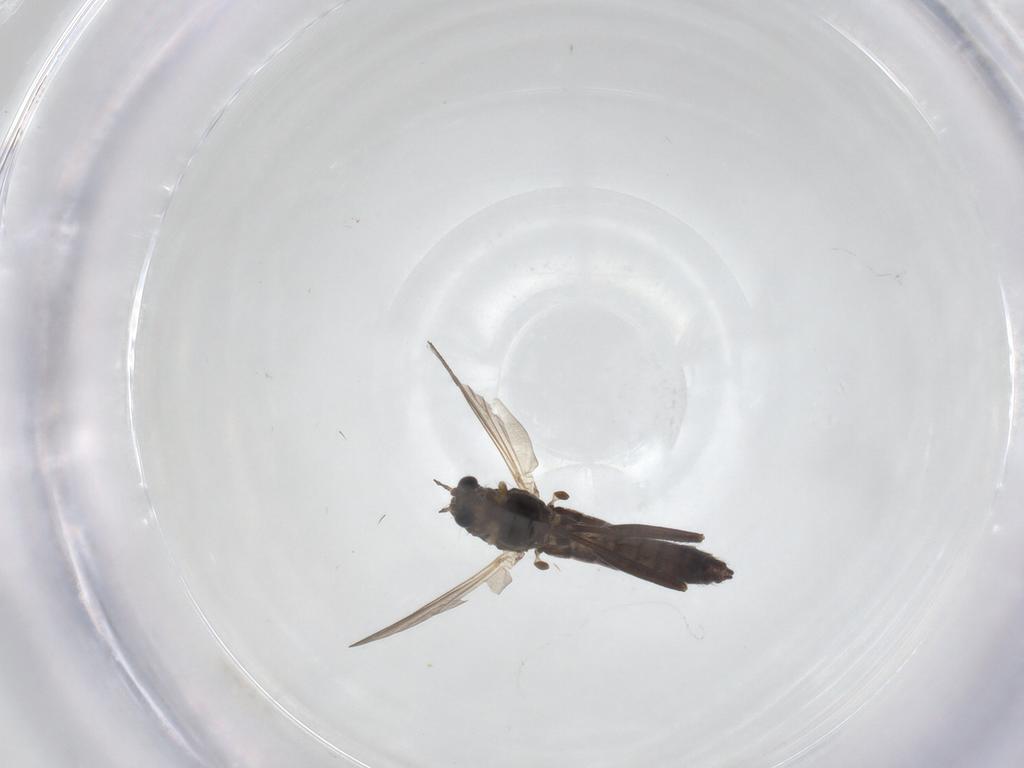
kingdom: Animalia
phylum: Arthropoda
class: Insecta
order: Diptera
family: Chironomidae
